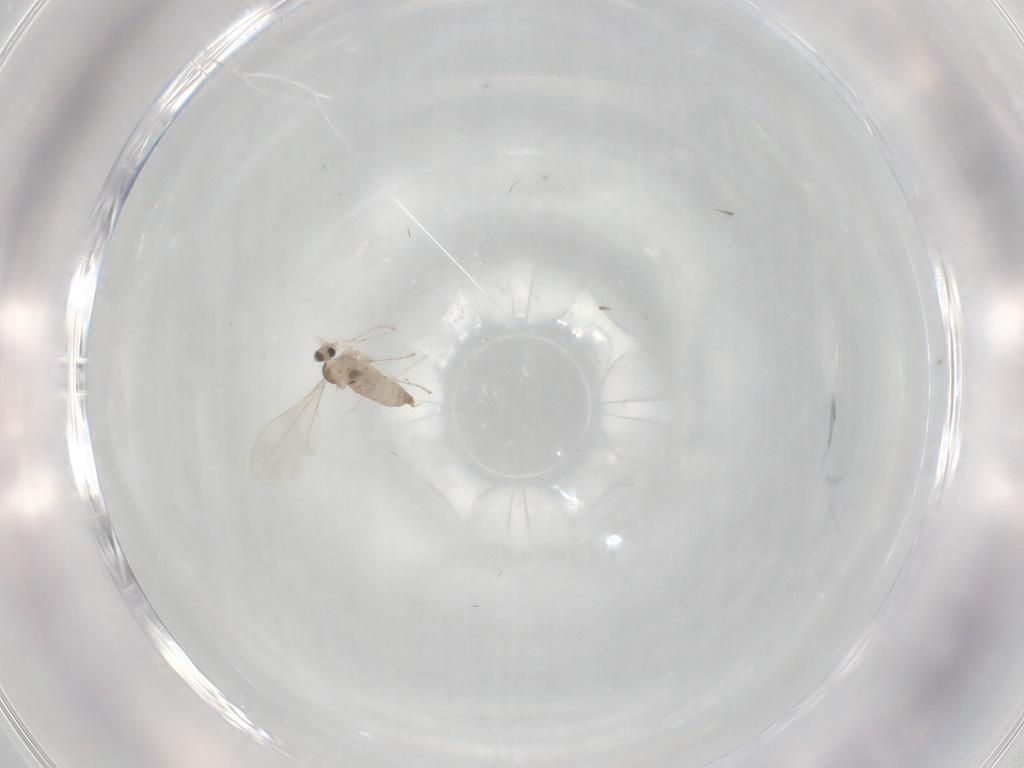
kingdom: Animalia
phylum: Arthropoda
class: Insecta
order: Diptera
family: Cecidomyiidae
